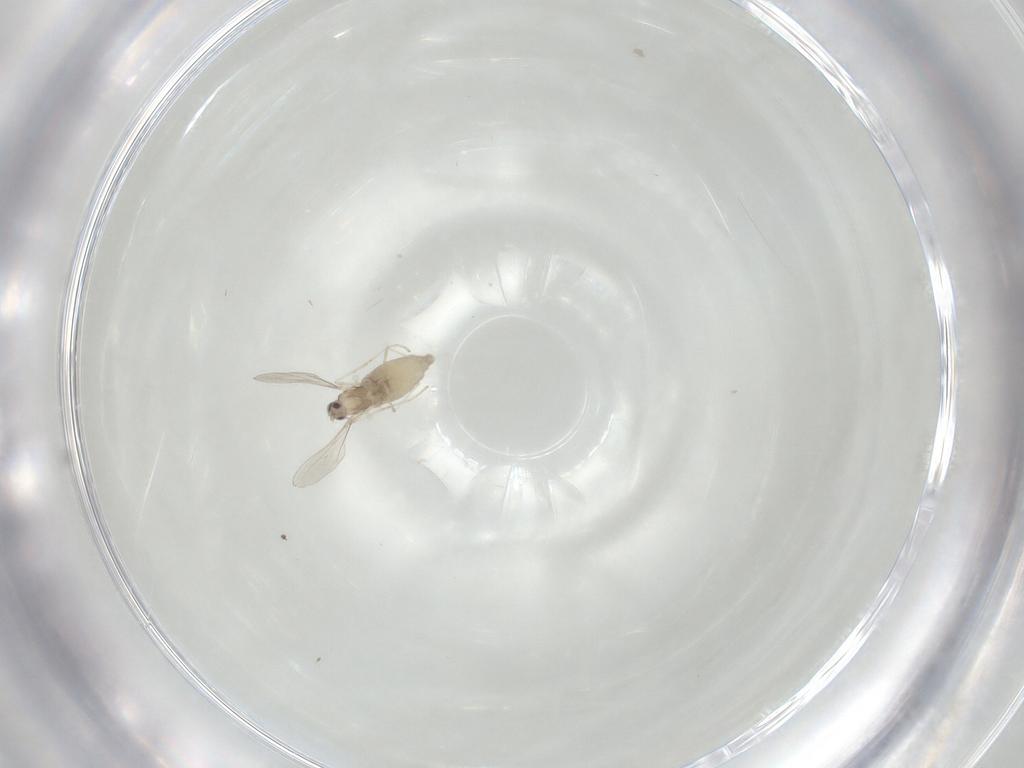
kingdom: Animalia
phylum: Arthropoda
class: Insecta
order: Diptera
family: Cecidomyiidae
